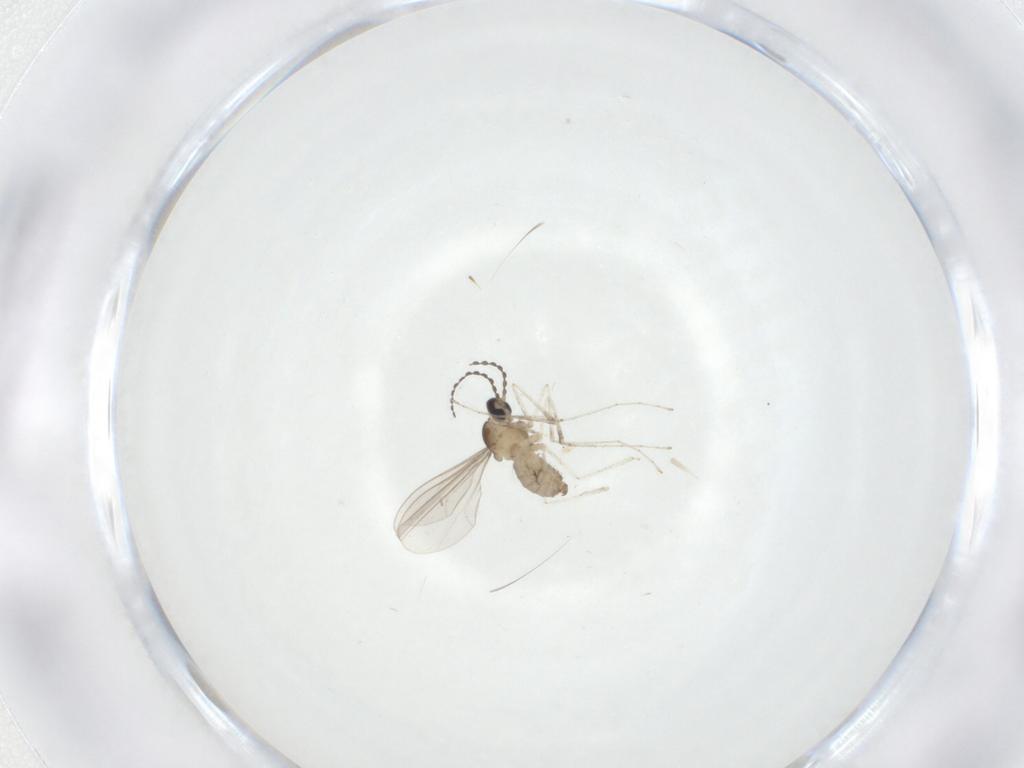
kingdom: Animalia
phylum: Arthropoda
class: Insecta
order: Diptera
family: Cecidomyiidae
